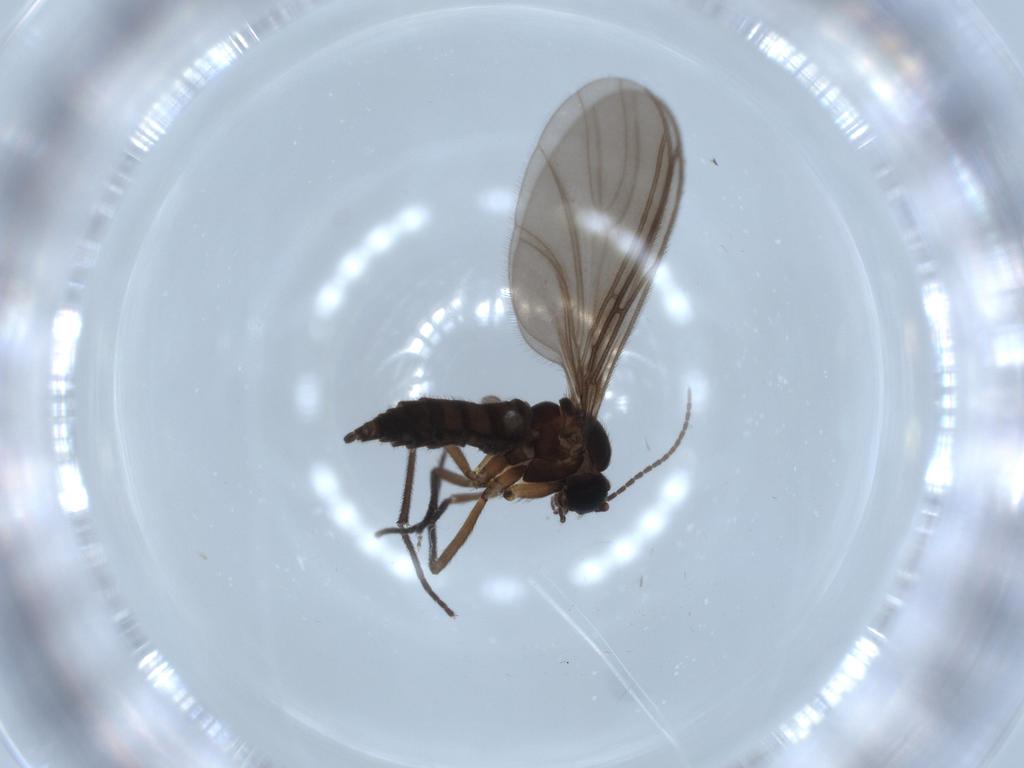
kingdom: Animalia
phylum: Arthropoda
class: Insecta
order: Diptera
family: Sciaridae
